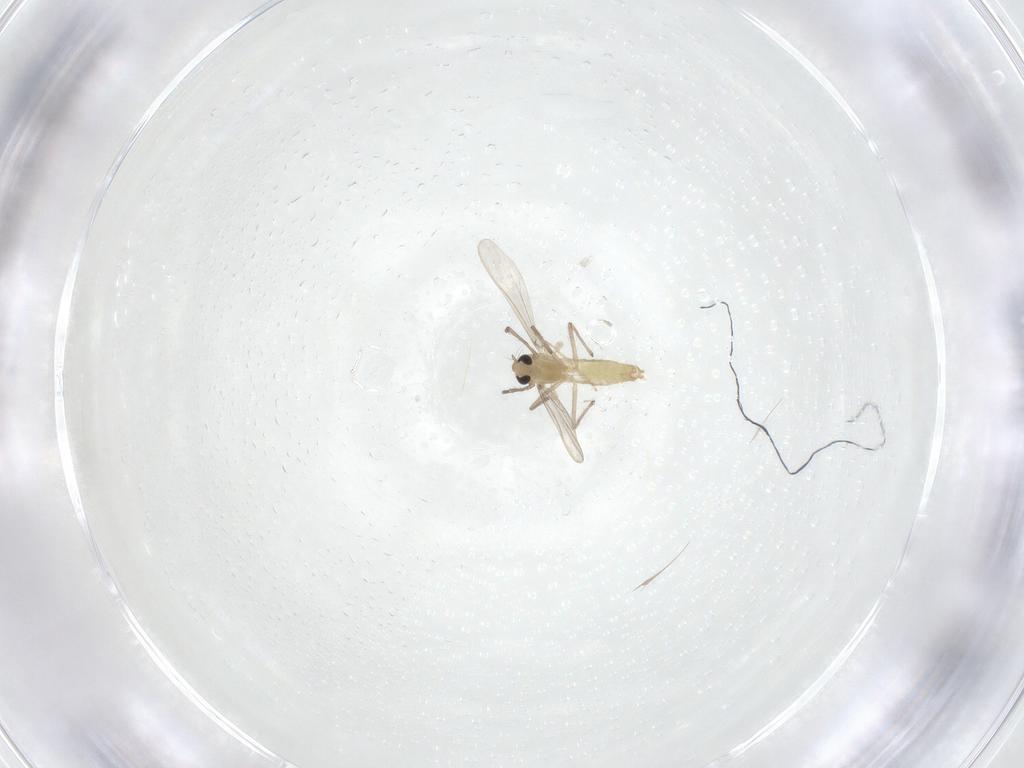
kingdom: Animalia
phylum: Arthropoda
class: Insecta
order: Diptera
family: Chironomidae
